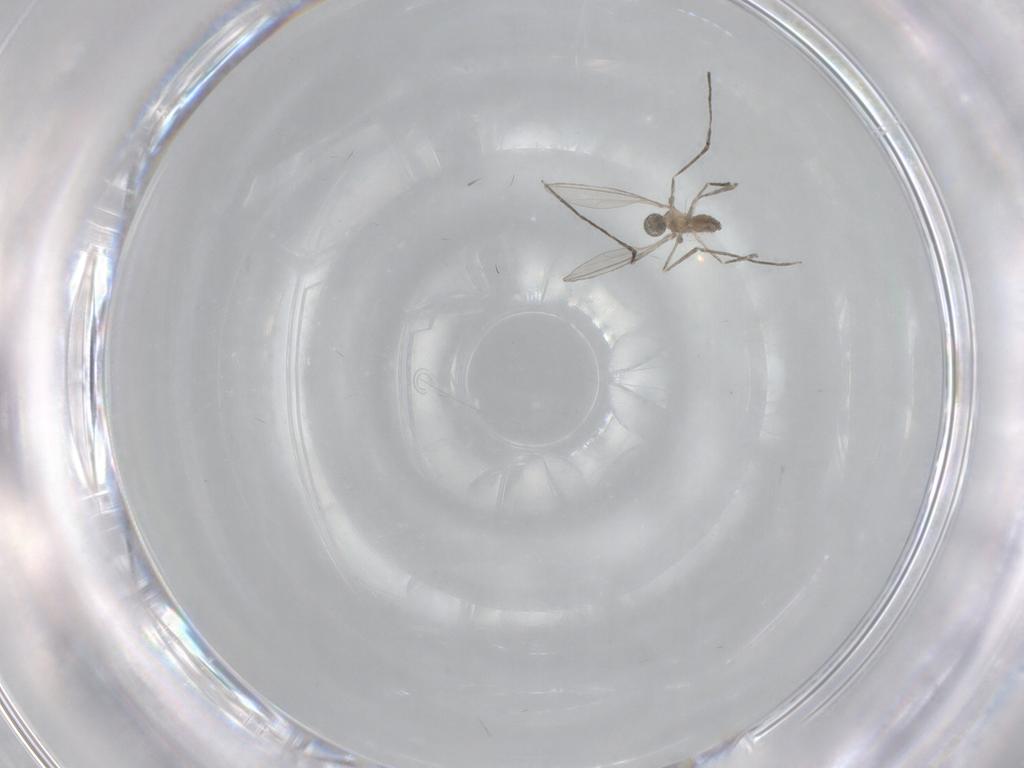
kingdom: Animalia
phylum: Arthropoda
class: Insecta
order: Diptera
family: Cecidomyiidae
